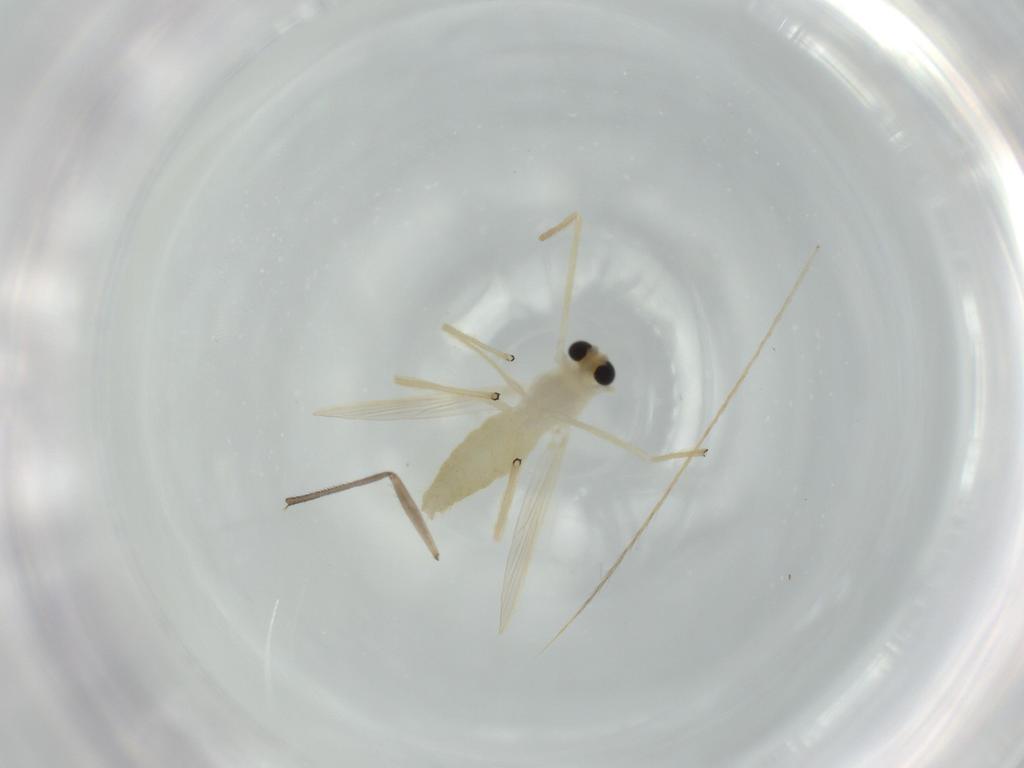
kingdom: Animalia
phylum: Arthropoda
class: Insecta
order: Diptera
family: Chironomidae
